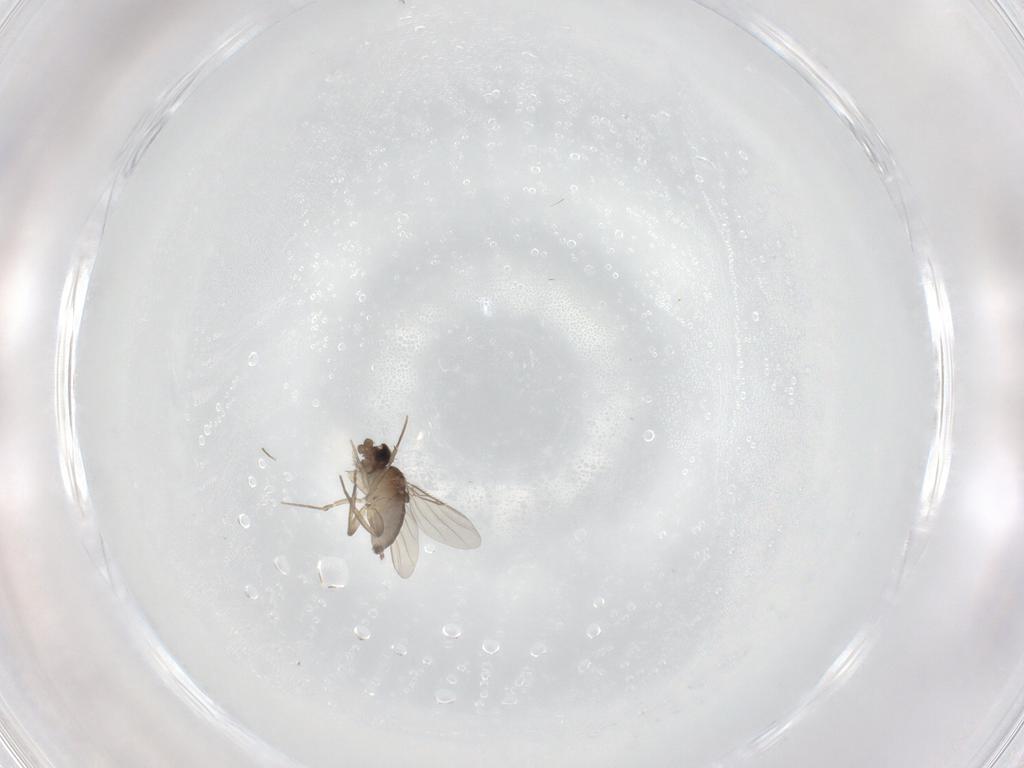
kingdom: Animalia
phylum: Arthropoda
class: Insecta
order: Diptera
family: Phoridae
